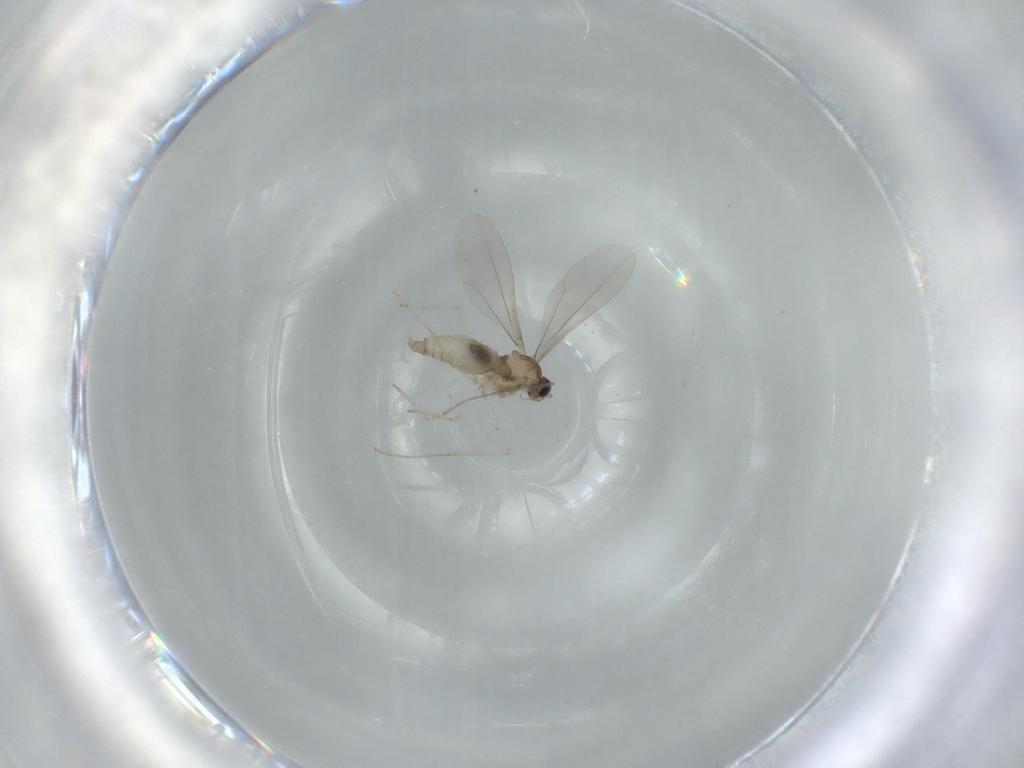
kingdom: Animalia
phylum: Arthropoda
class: Insecta
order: Diptera
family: Cecidomyiidae
